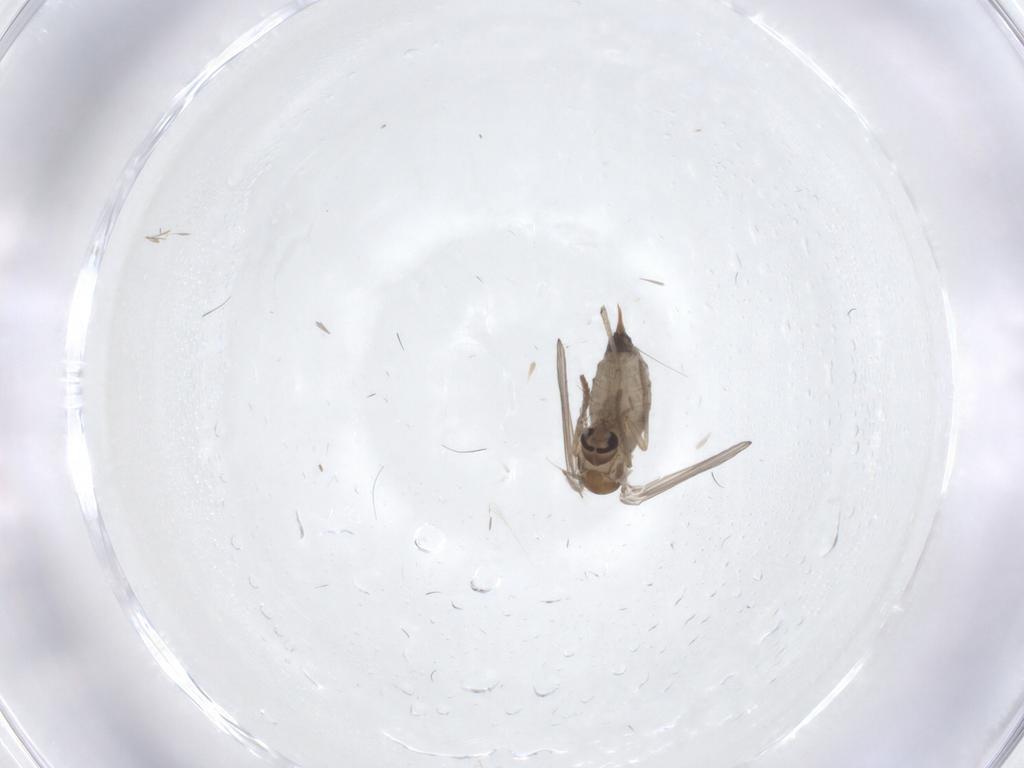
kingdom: Animalia
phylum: Arthropoda
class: Insecta
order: Diptera
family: Psychodidae
